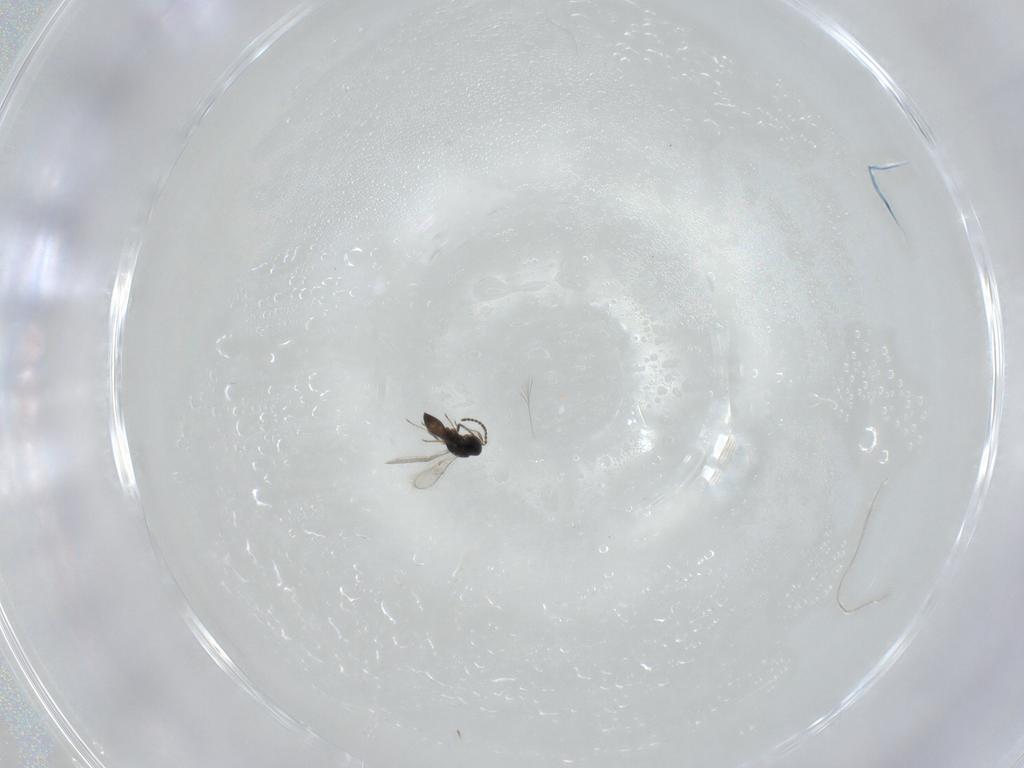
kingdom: Animalia
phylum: Arthropoda
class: Insecta
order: Hymenoptera
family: Scelionidae
